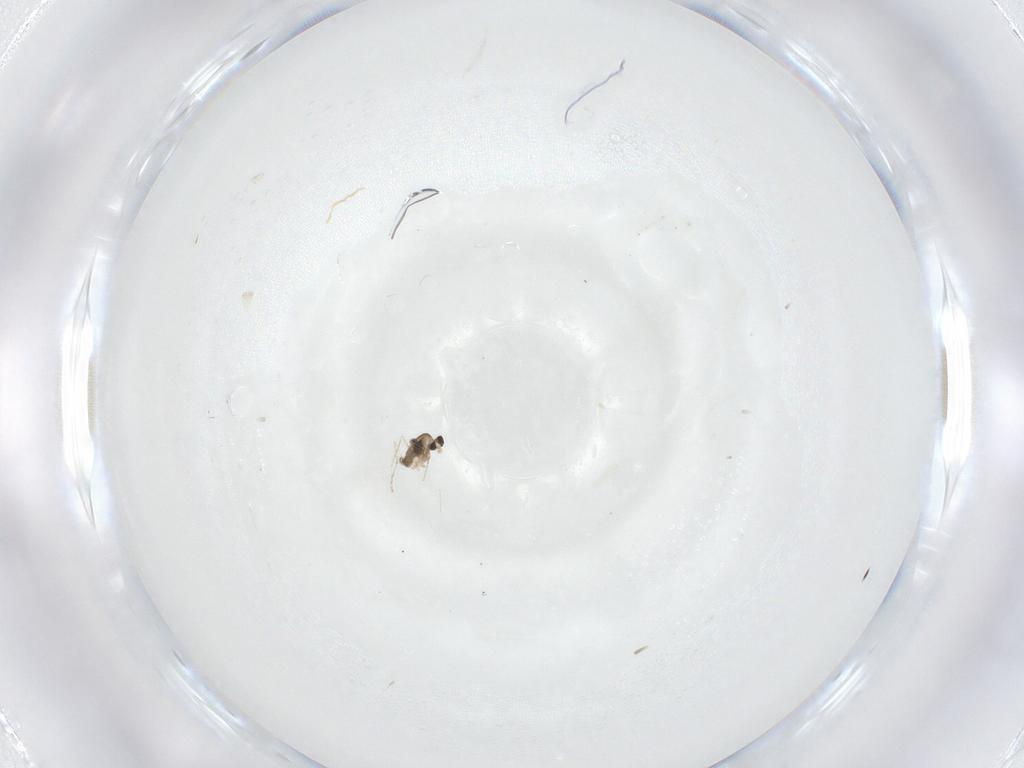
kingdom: Animalia
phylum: Arthropoda
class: Insecta
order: Diptera
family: Cecidomyiidae
